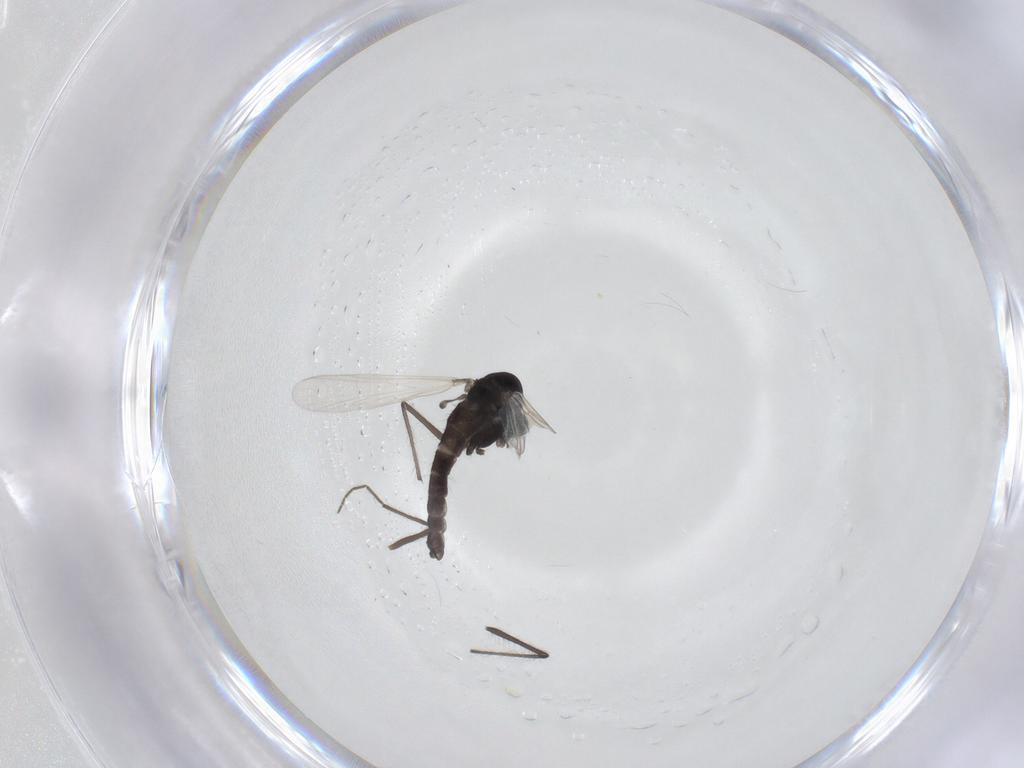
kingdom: Animalia
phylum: Arthropoda
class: Insecta
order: Diptera
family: Chironomidae
